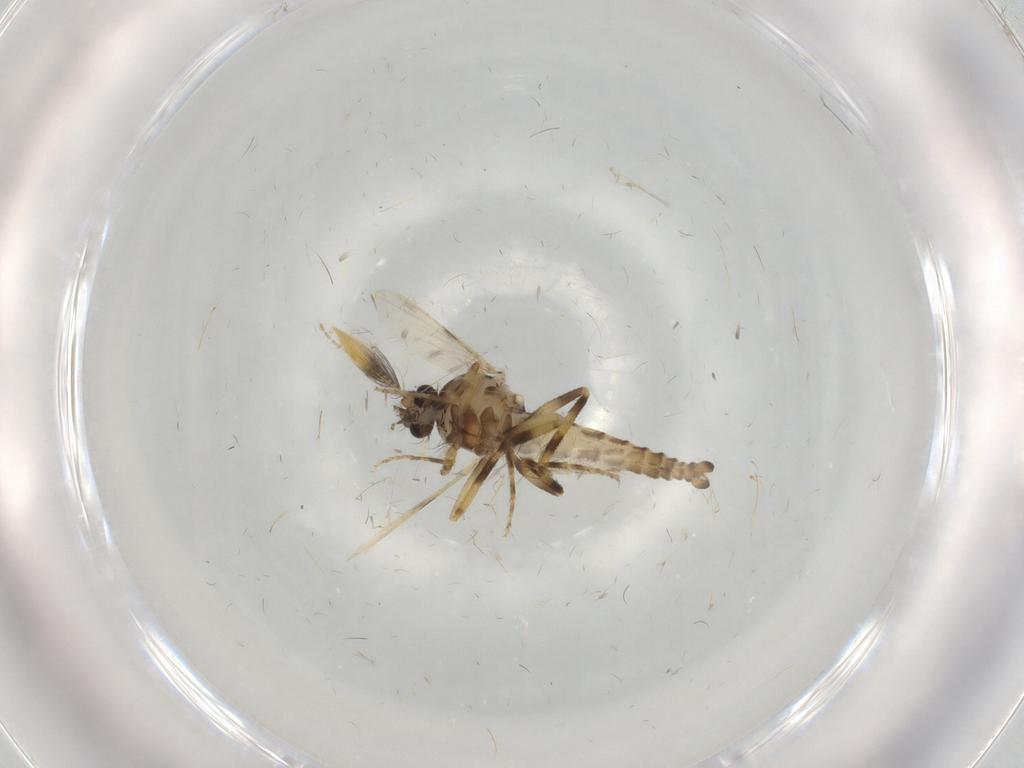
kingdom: Animalia
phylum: Arthropoda
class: Insecta
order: Diptera
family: Ceratopogonidae
